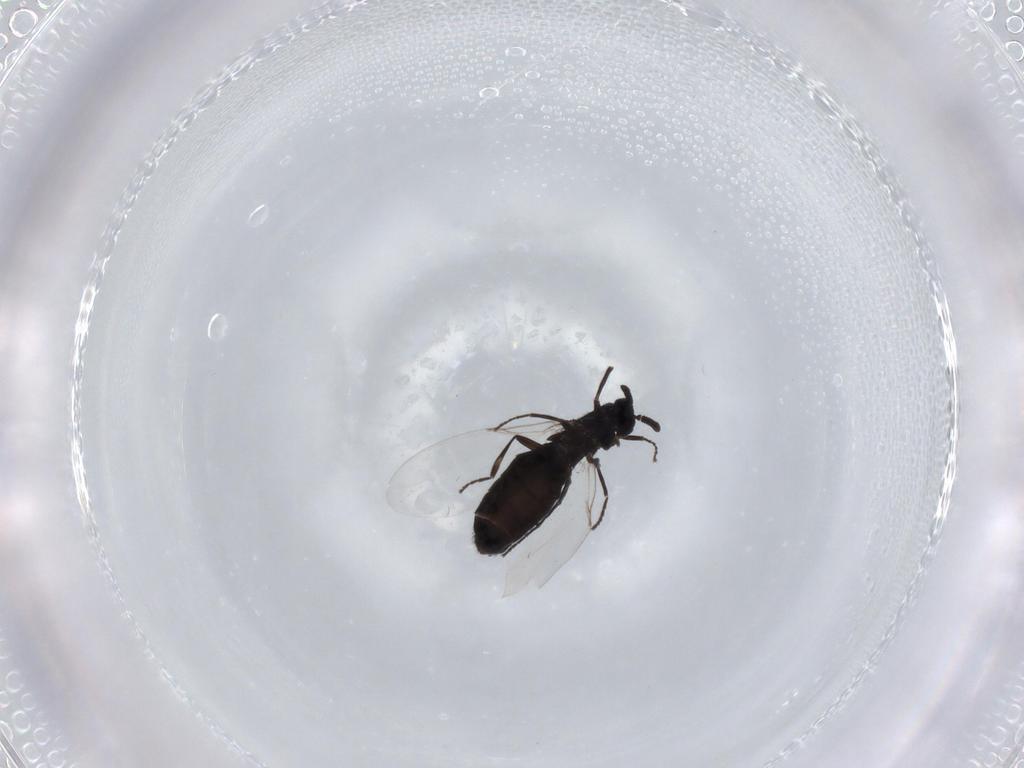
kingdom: Animalia
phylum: Arthropoda
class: Insecta
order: Diptera
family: Scatopsidae
